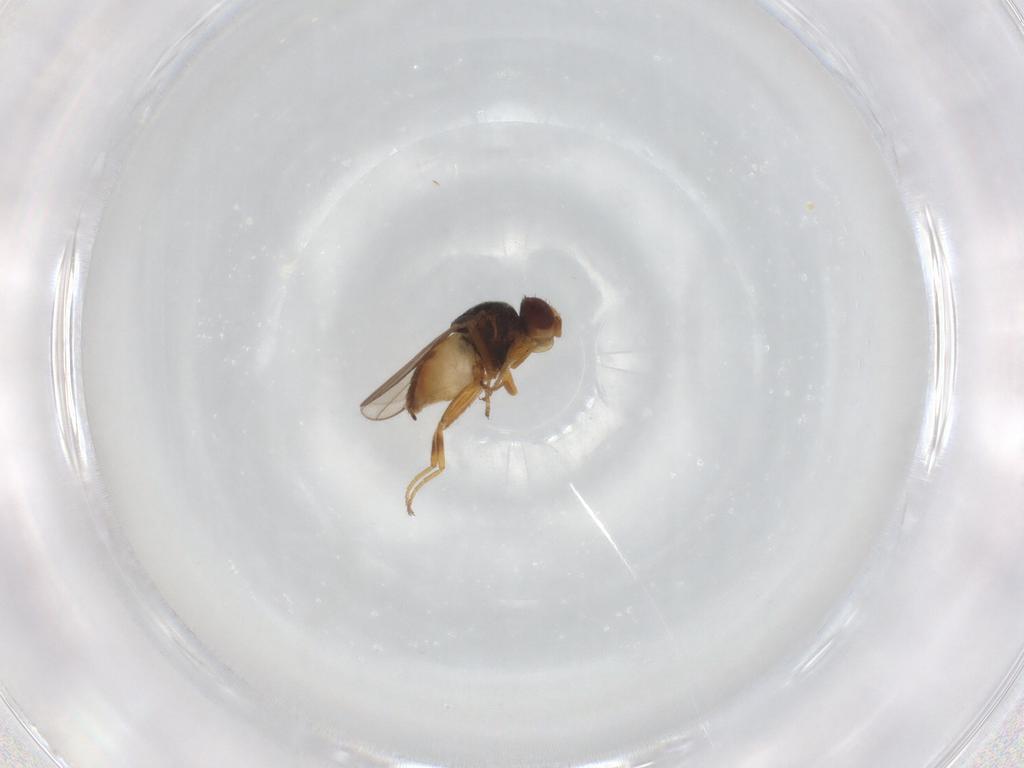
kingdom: Animalia
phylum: Arthropoda
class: Insecta
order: Diptera
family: Chloropidae
